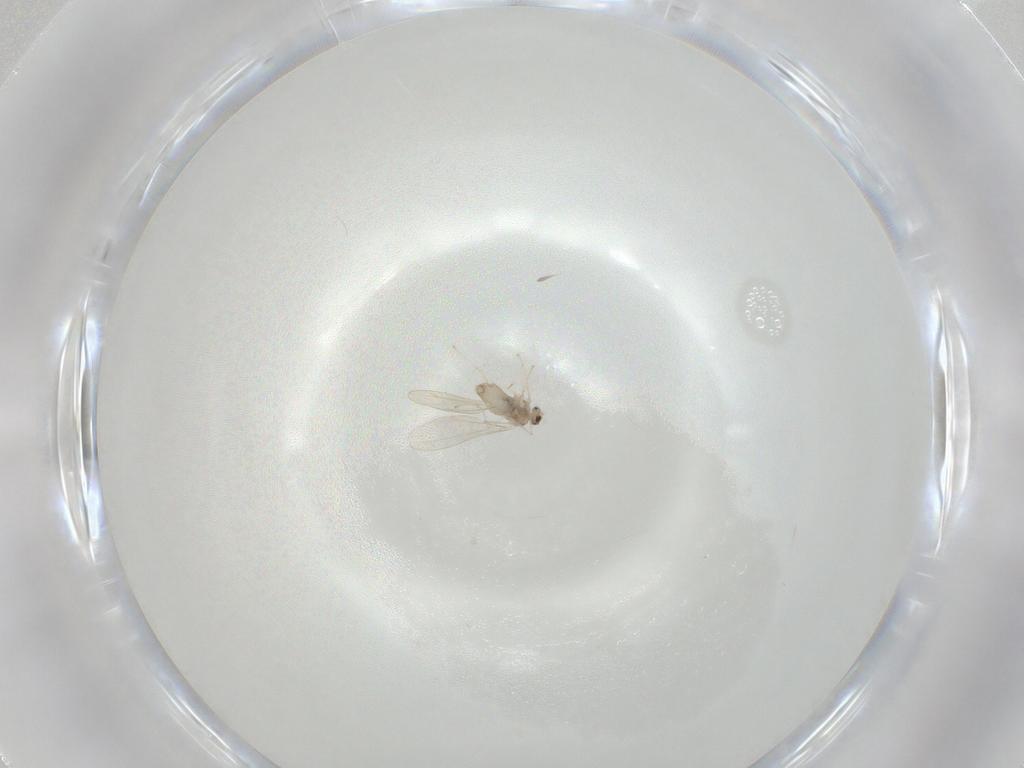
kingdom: Animalia
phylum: Arthropoda
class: Insecta
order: Diptera
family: Cecidomyiidae
